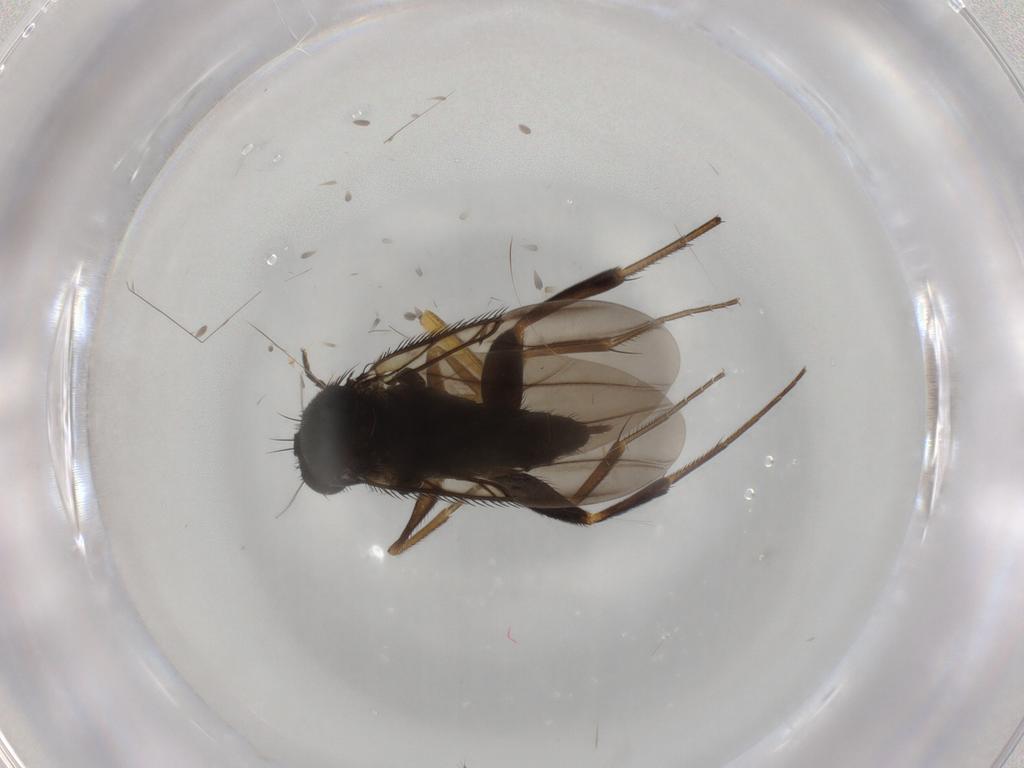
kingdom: Animalia
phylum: Arthropoda
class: Insecta
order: Diptera
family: Phoridae
